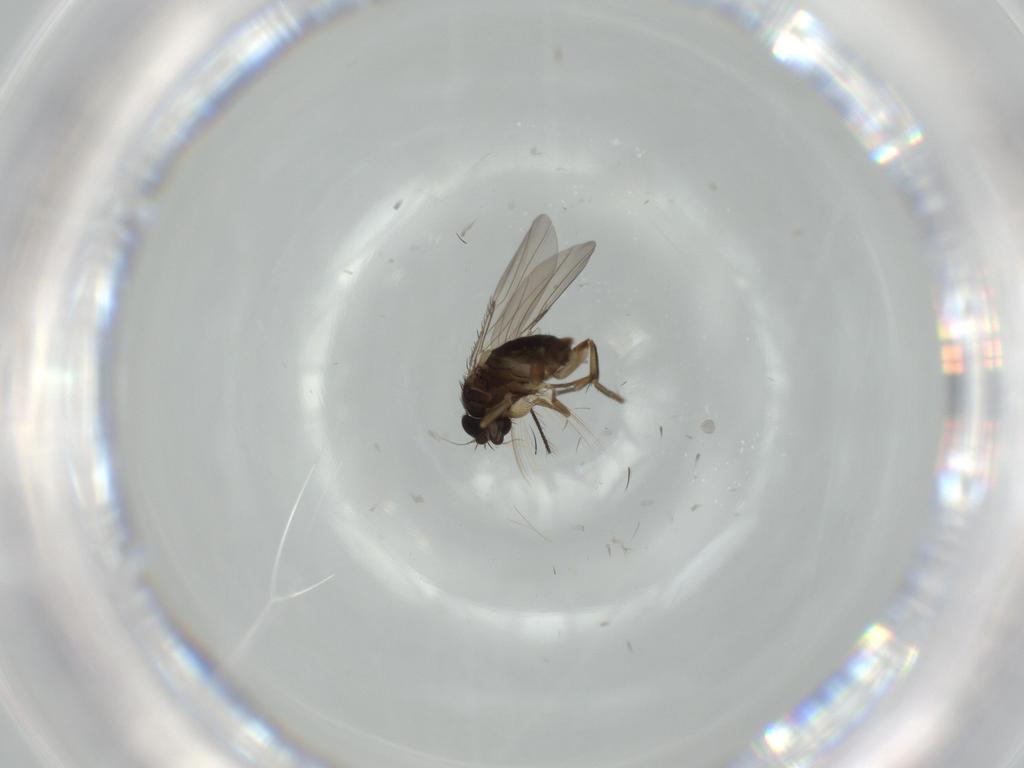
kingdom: Animalia
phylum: Arthropoda
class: Insecta
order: Diptera
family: Phoridae
